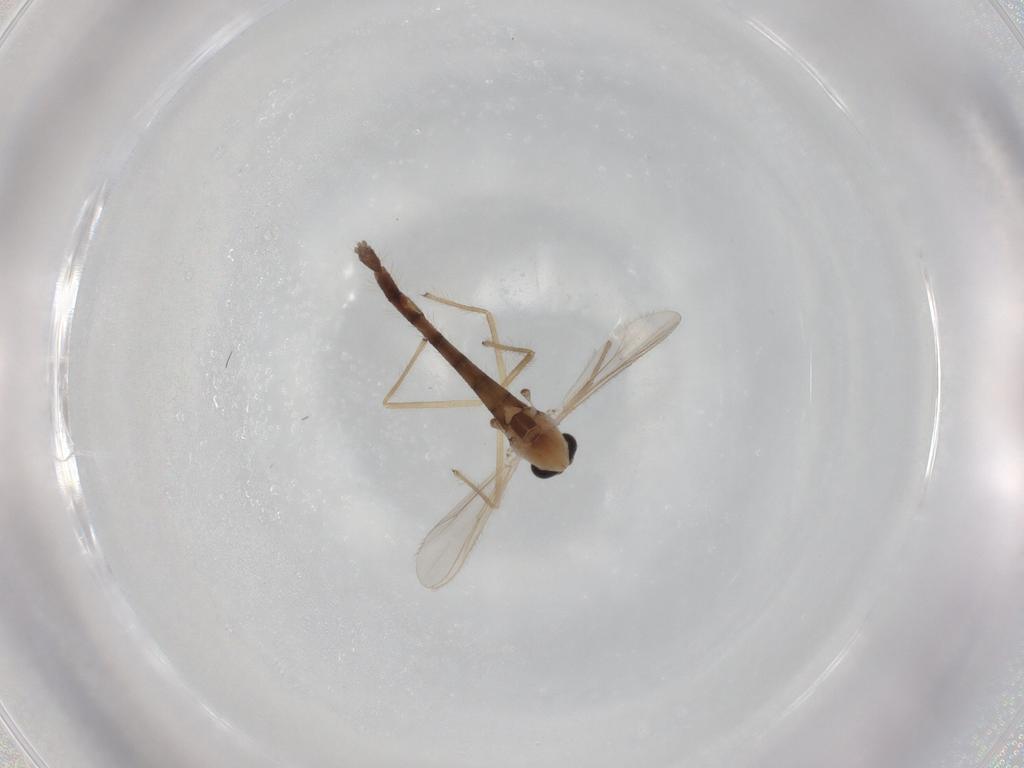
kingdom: Animalia
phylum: Arthropoda
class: Insecta
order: Diptera
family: Chironomidae
